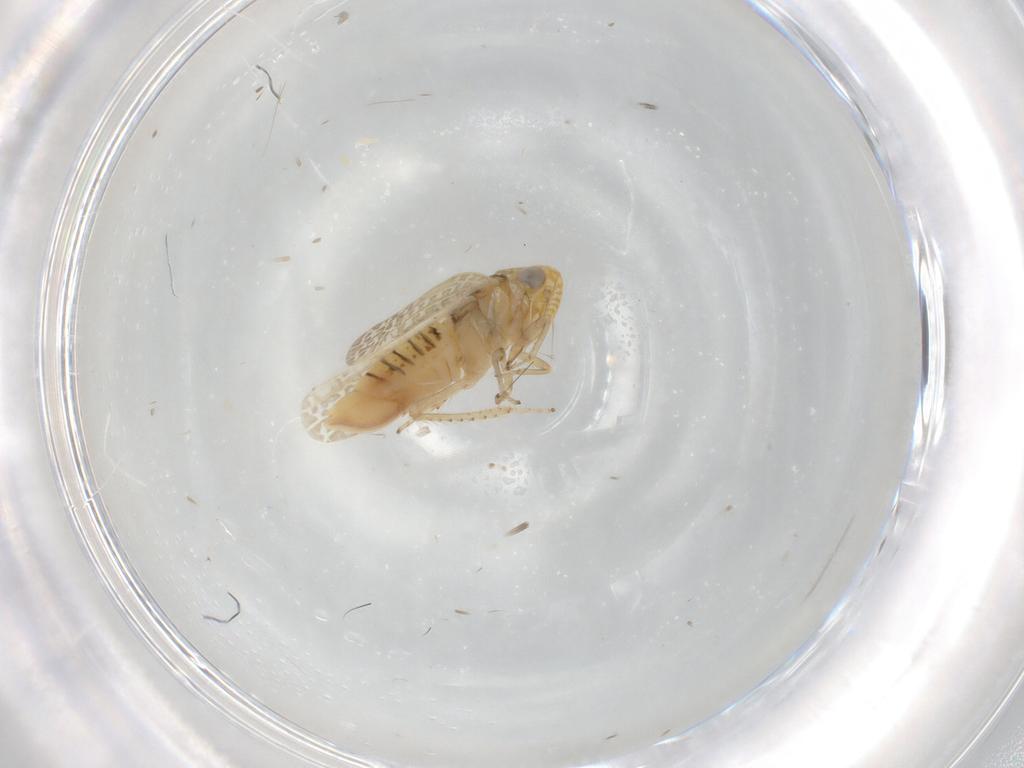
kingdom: Animalia
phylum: Arthropoda
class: Insecta
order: Hemiptera
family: Cicadellidae
